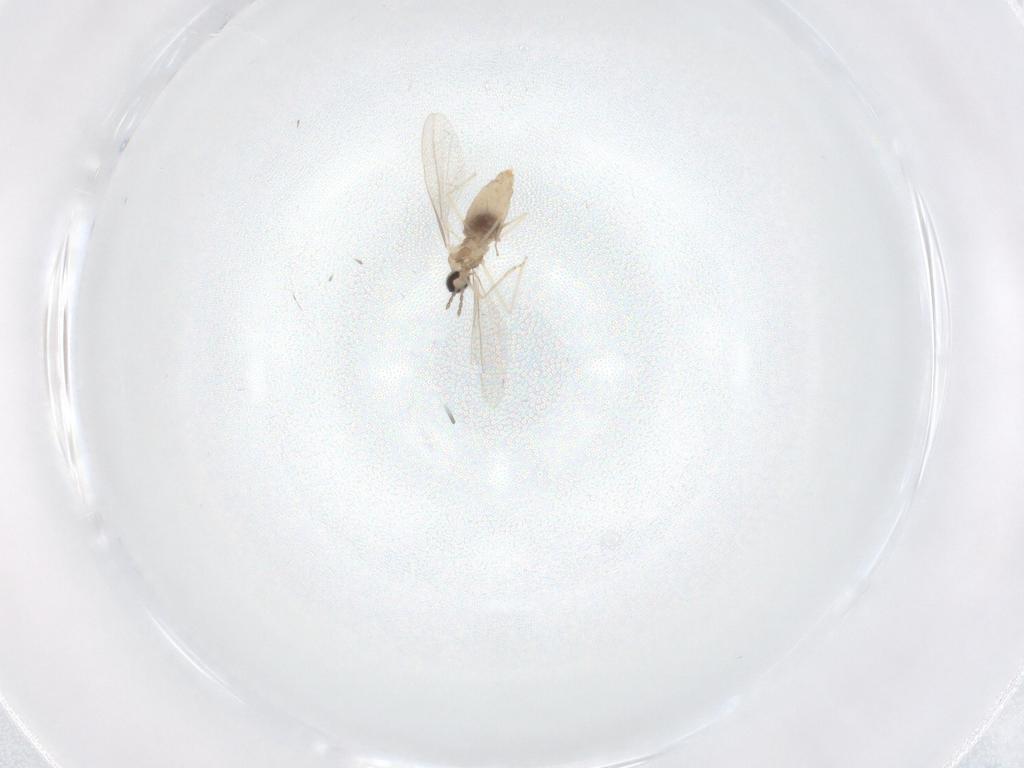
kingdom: Animalia
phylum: Arthropoda
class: Insecta
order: Diptera
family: Cecidomyiidae
